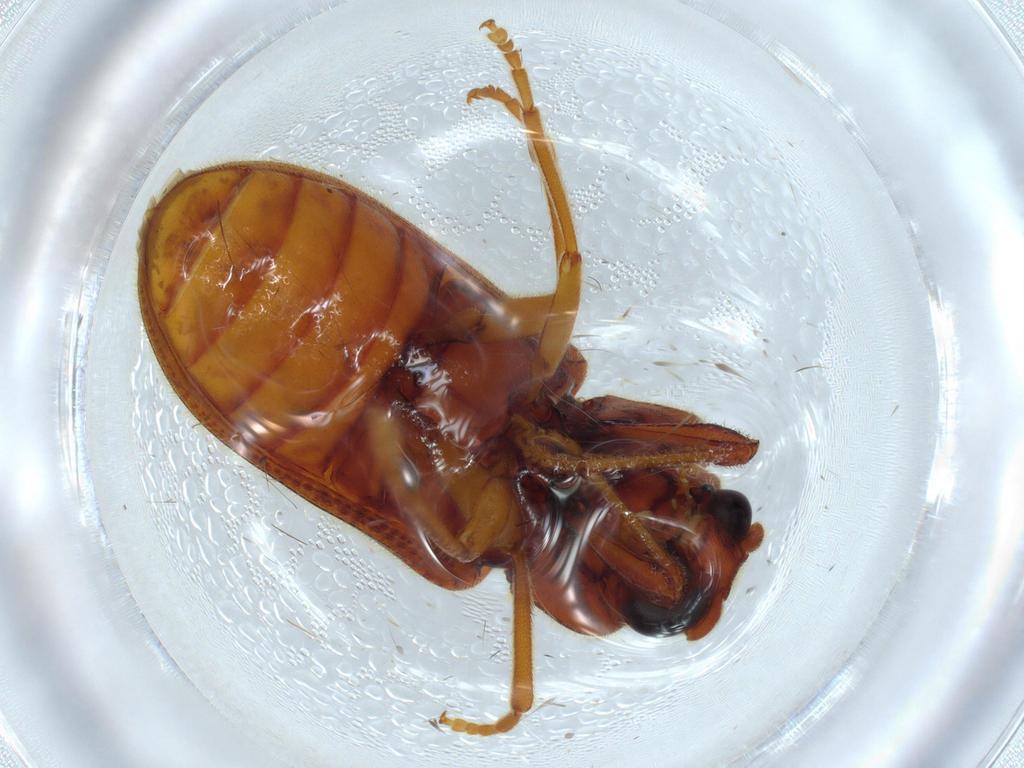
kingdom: Animalia
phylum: Arthropoda
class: Insecta
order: Coleoptera
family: Cerophytidae
